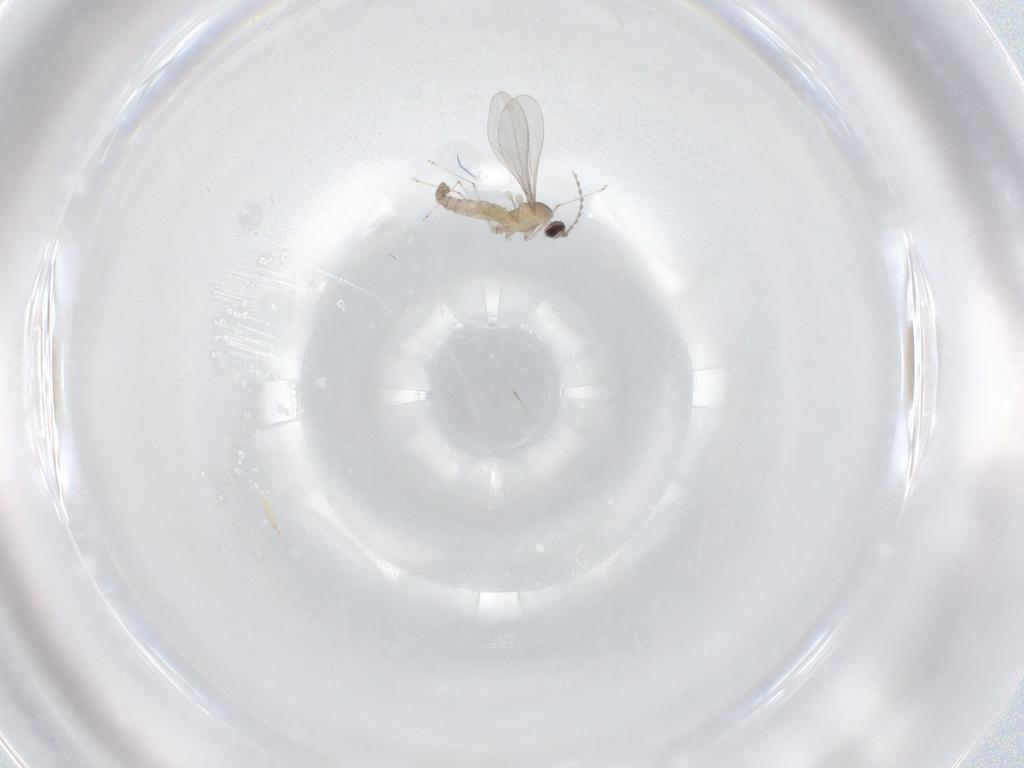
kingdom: Animalia
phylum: Arthropoda
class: Insecta
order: Diptera
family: Cecidomyiidae
